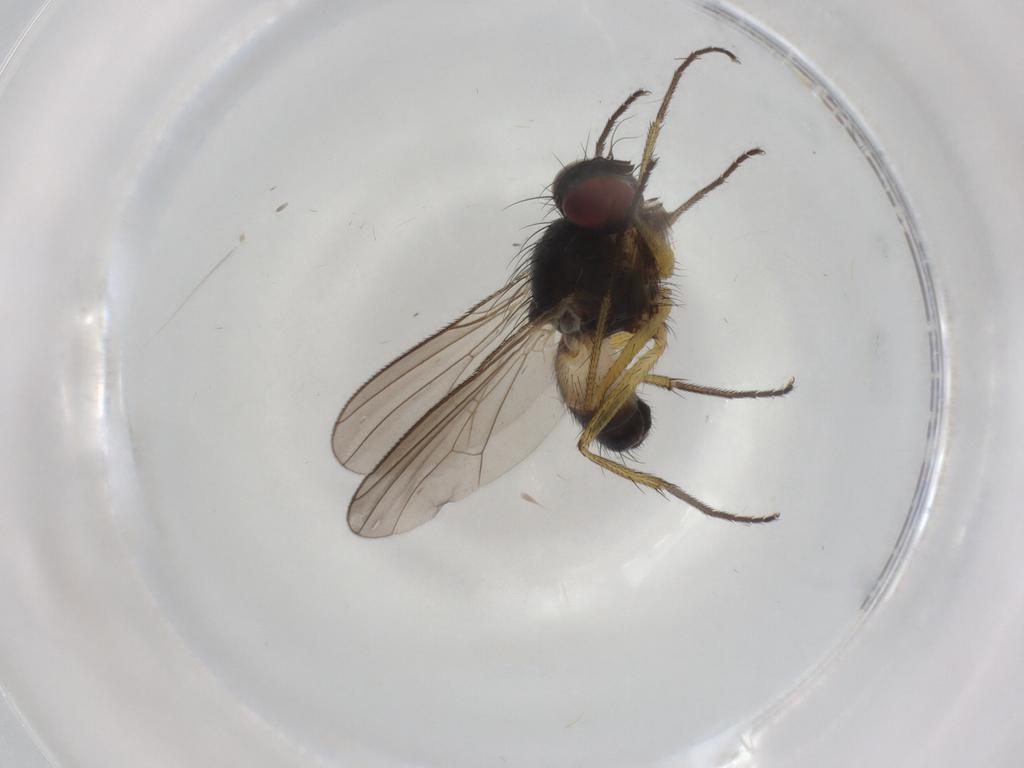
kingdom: Animalia
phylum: Arthropoda
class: Insecta
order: Diptera
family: Muscidae
